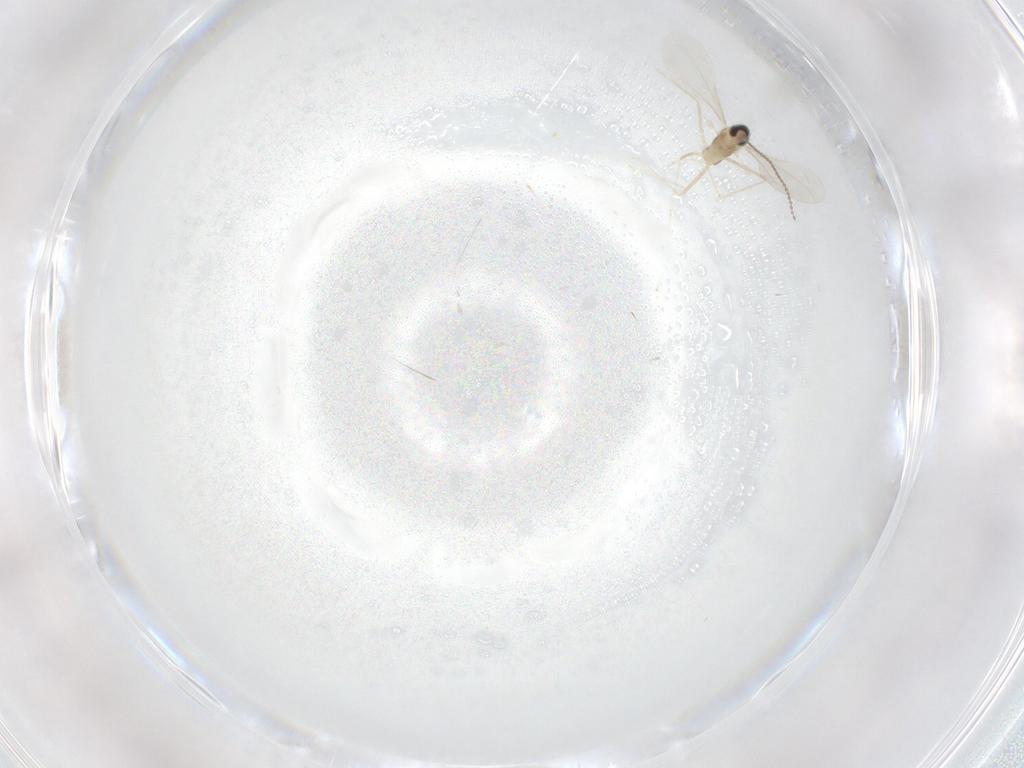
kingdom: Animalia
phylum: Arthropoda
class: Insecta
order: Diptera
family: Cecidomyiidae
